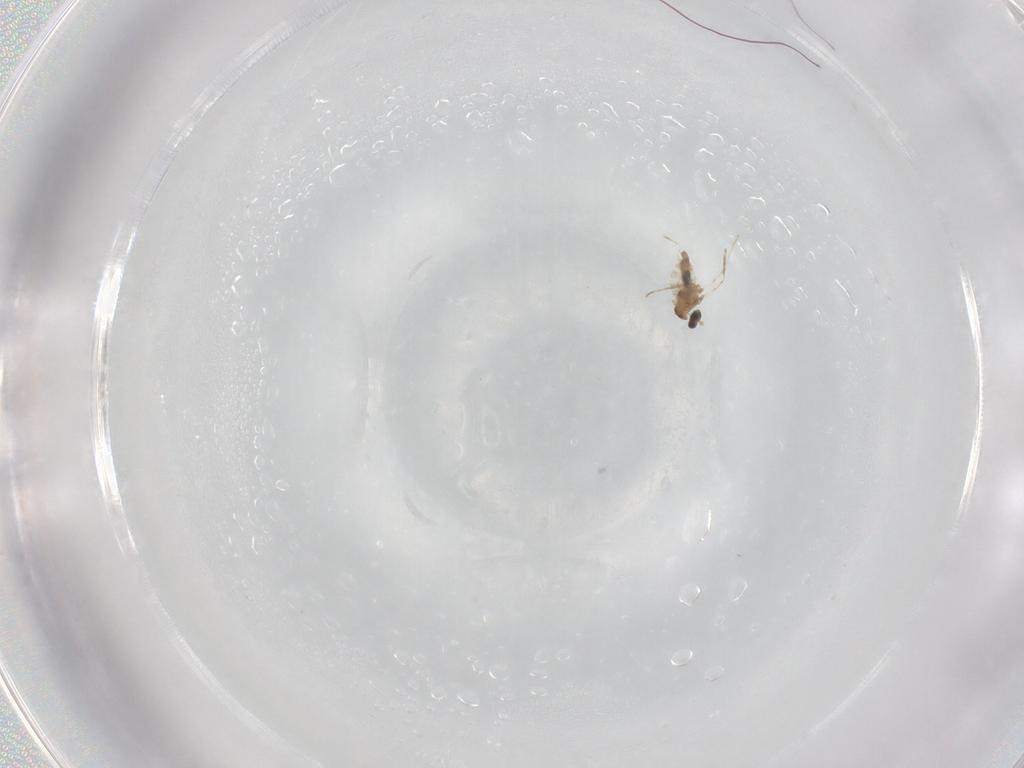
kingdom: Animalia
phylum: Arthropoda
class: Insecta
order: Diptera
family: Cecidomyiidae
